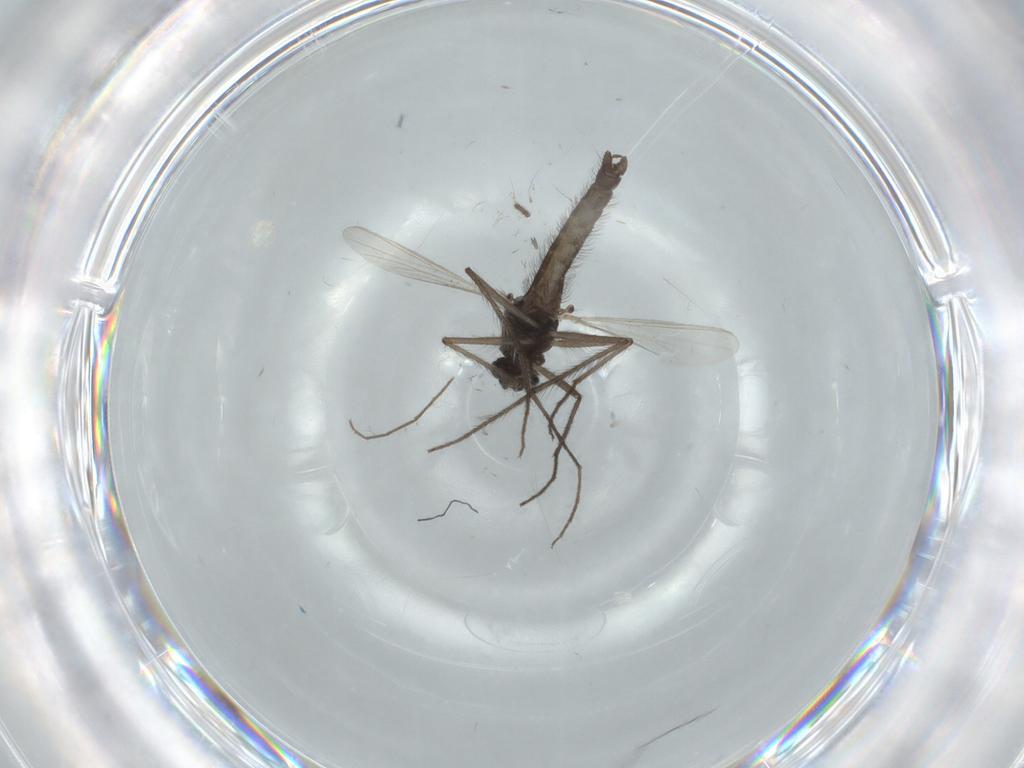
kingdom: Animalia
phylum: Arthropoda
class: Insecta
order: Diptera
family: Chironomidae
